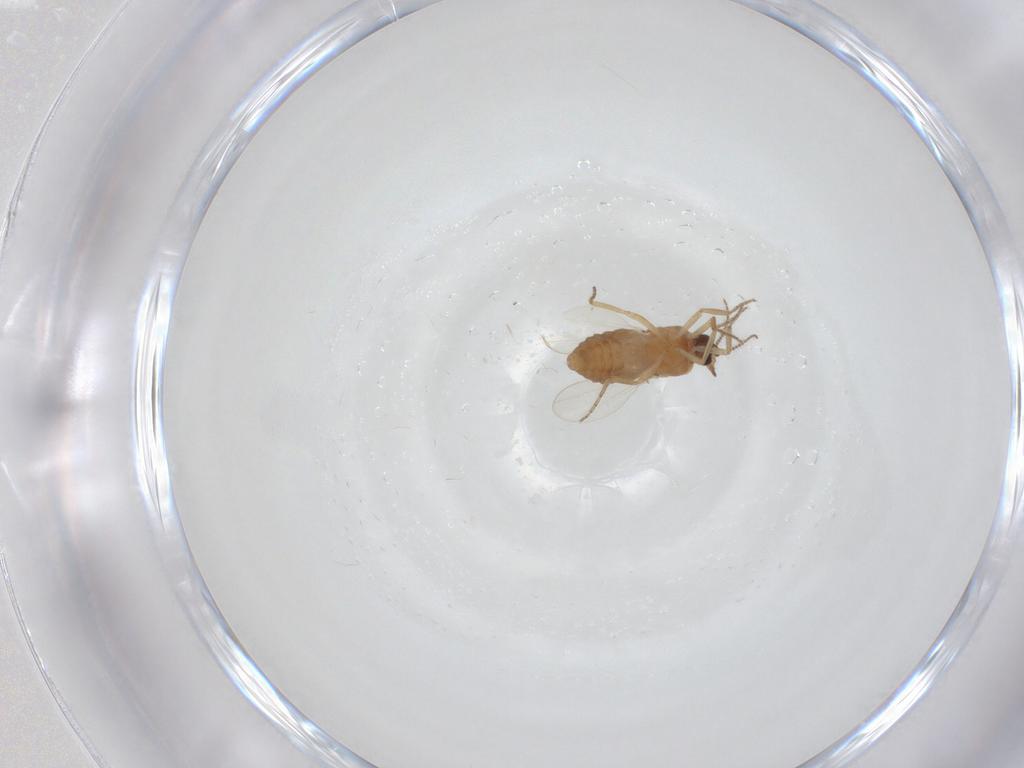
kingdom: Animalia
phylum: Arthropoda
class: Insecta
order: Diptera
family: Ceratopogonidae
